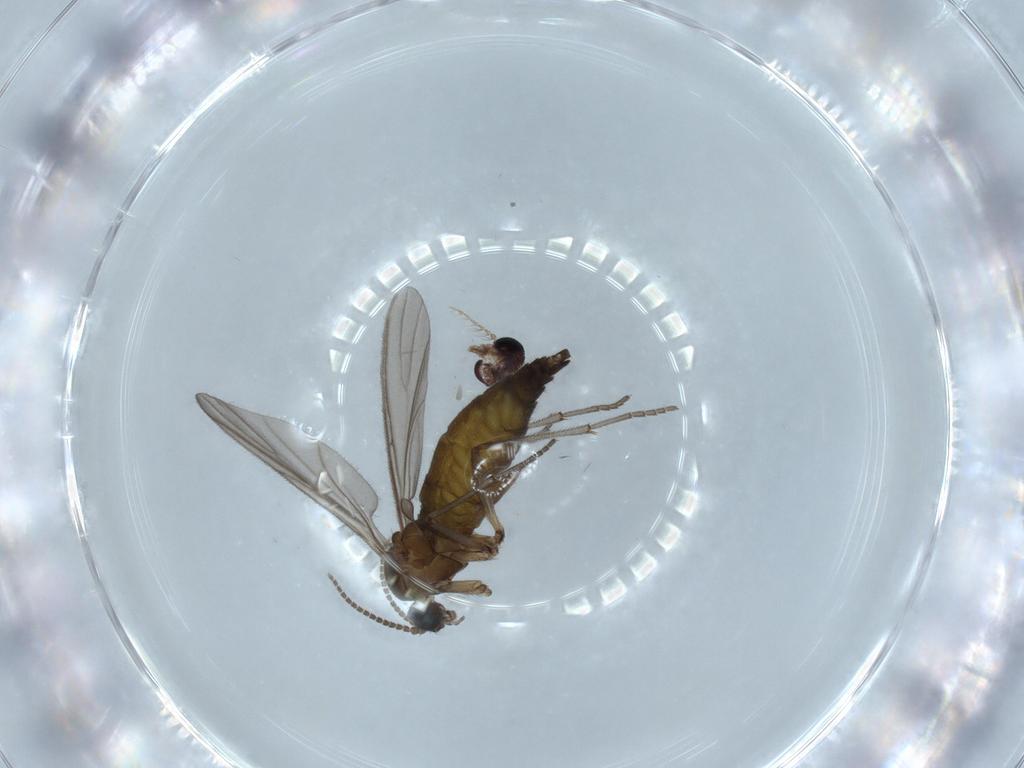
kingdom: Animalia
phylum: Arthropoda
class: Insecta
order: Diptera
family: Sciaridae
